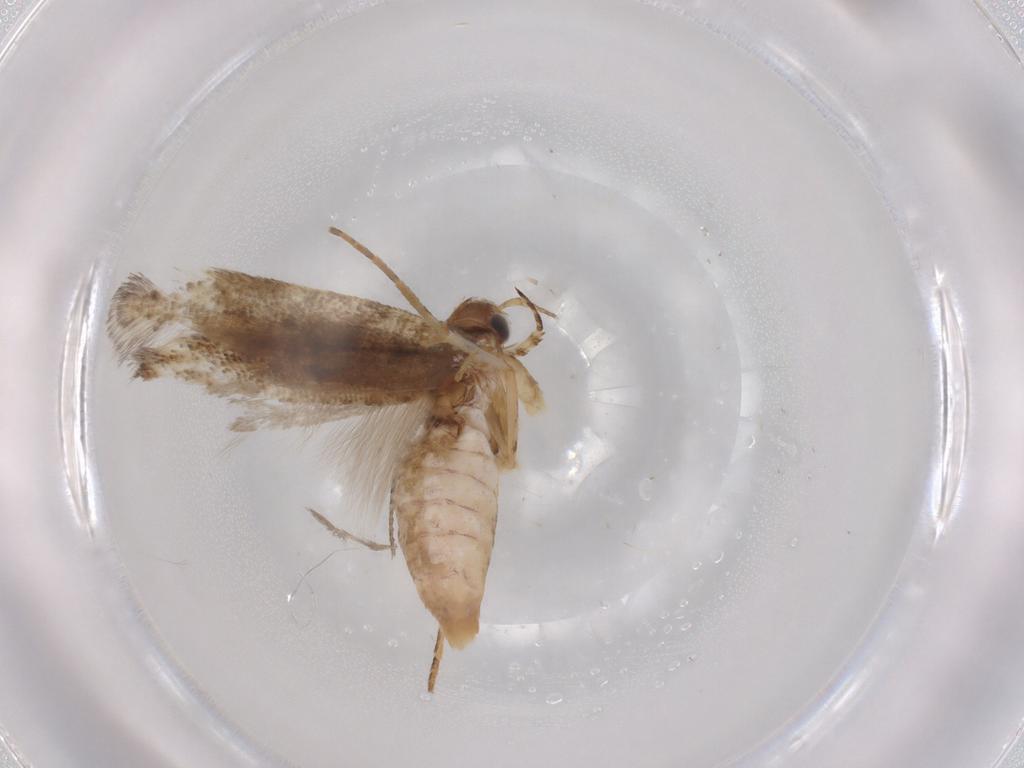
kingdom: Animalia
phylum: Arthropoda
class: Insecta
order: Lepidoptera
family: Gelechiidae
